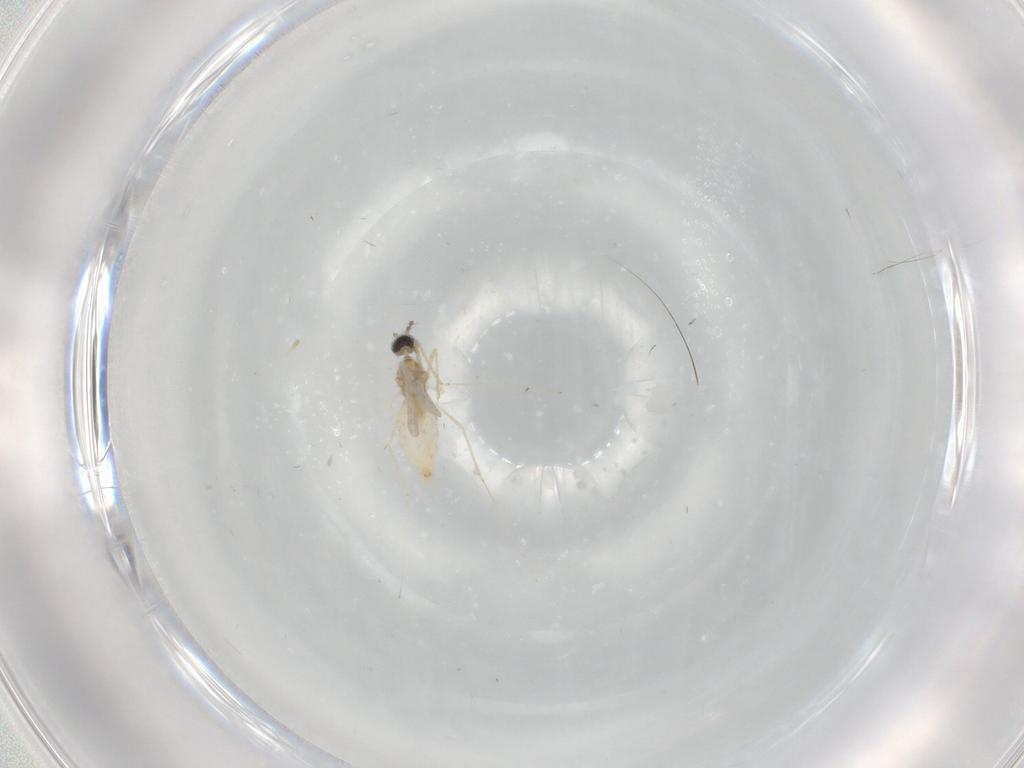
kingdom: Animalia
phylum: Arthropoda
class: Insecta
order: Diptera
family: Cecidomyiidae
